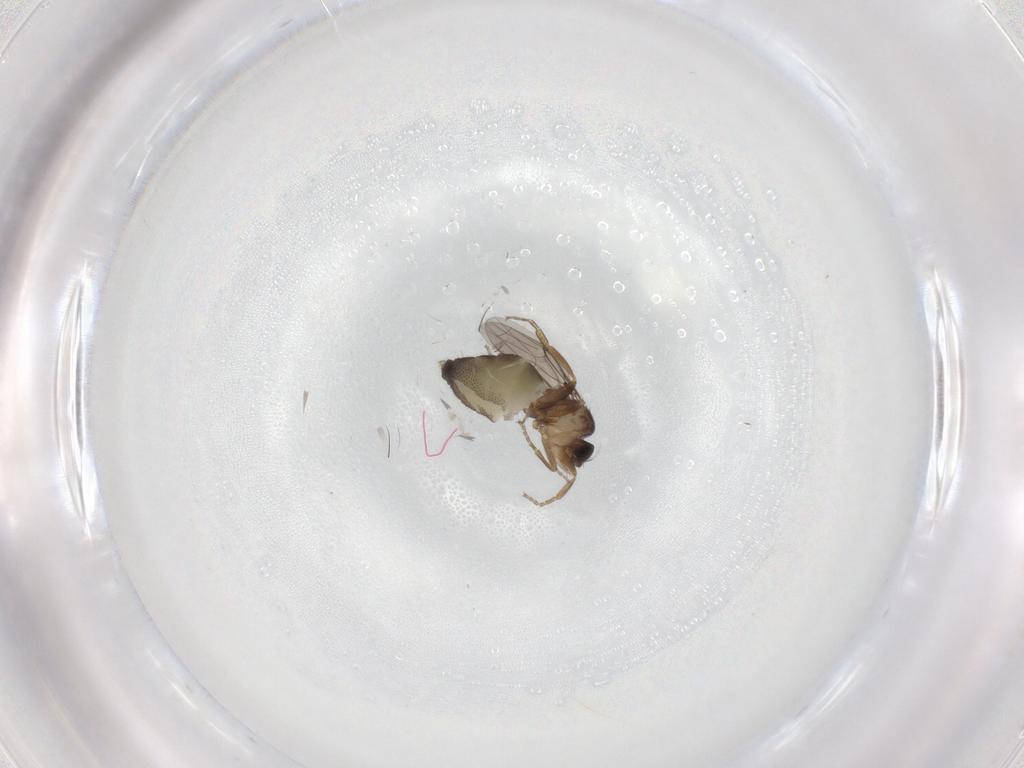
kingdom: Animalia
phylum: Arthropoda
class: Insecta
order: Diptera
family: Phoridae
